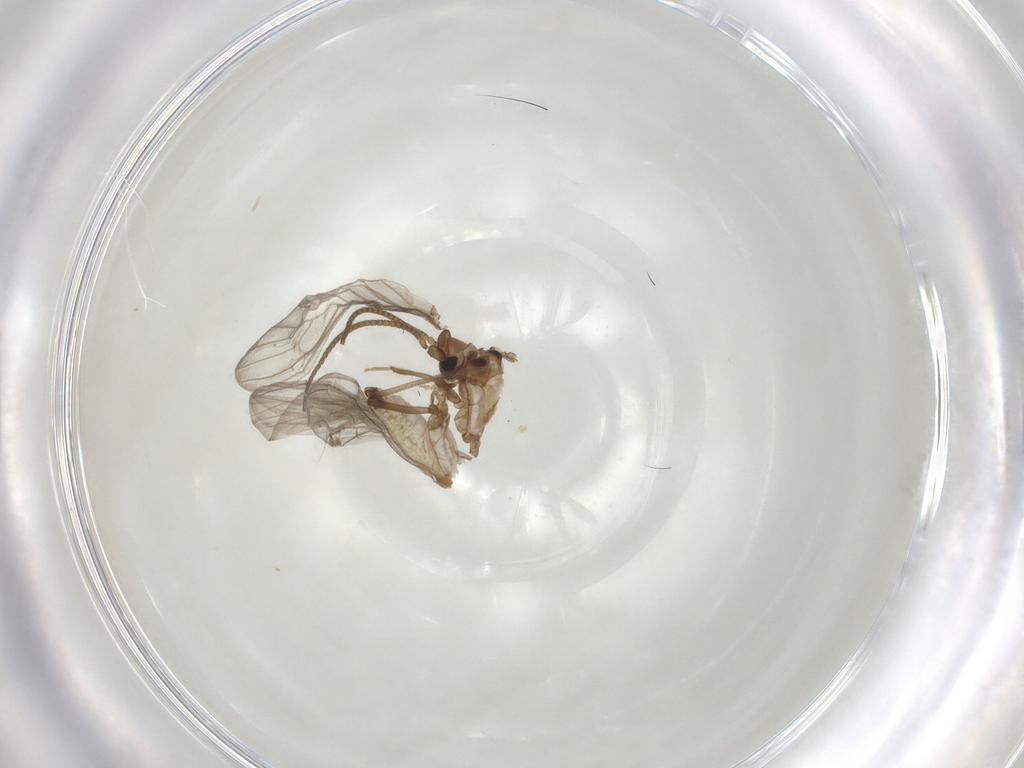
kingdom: Animalia
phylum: Arthropoda
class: Insecta
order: Neuroptera
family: Coniopterygidae
